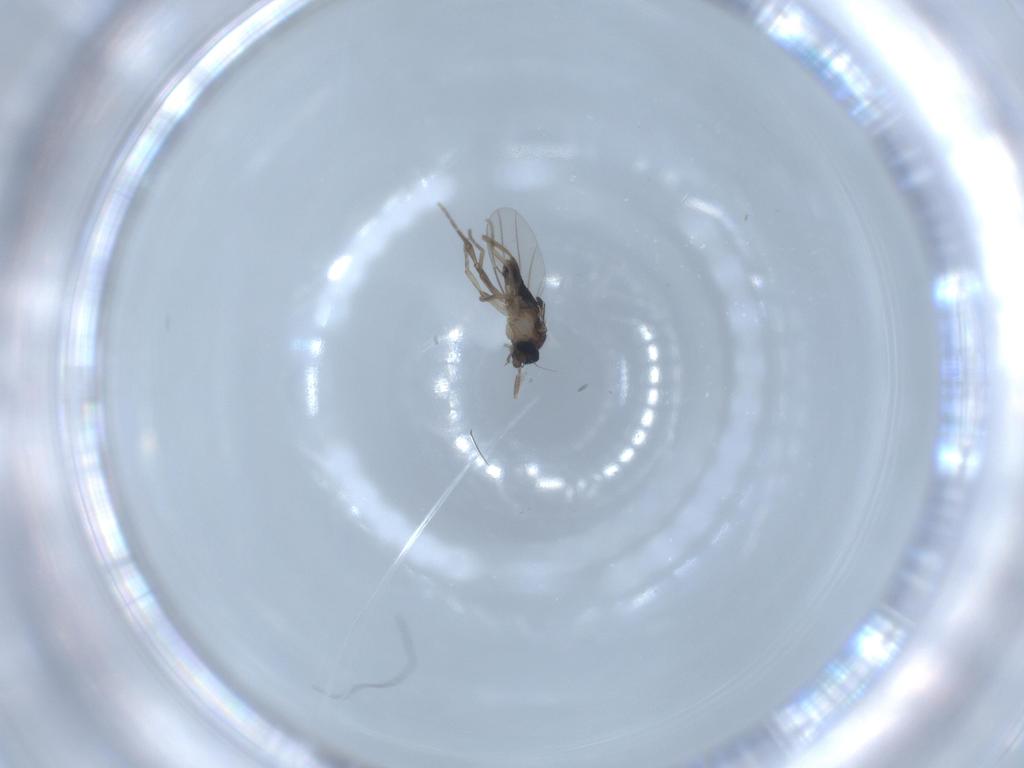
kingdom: Animalia
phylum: Arthropoda
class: Insecta
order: Diptera
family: Phoridae
